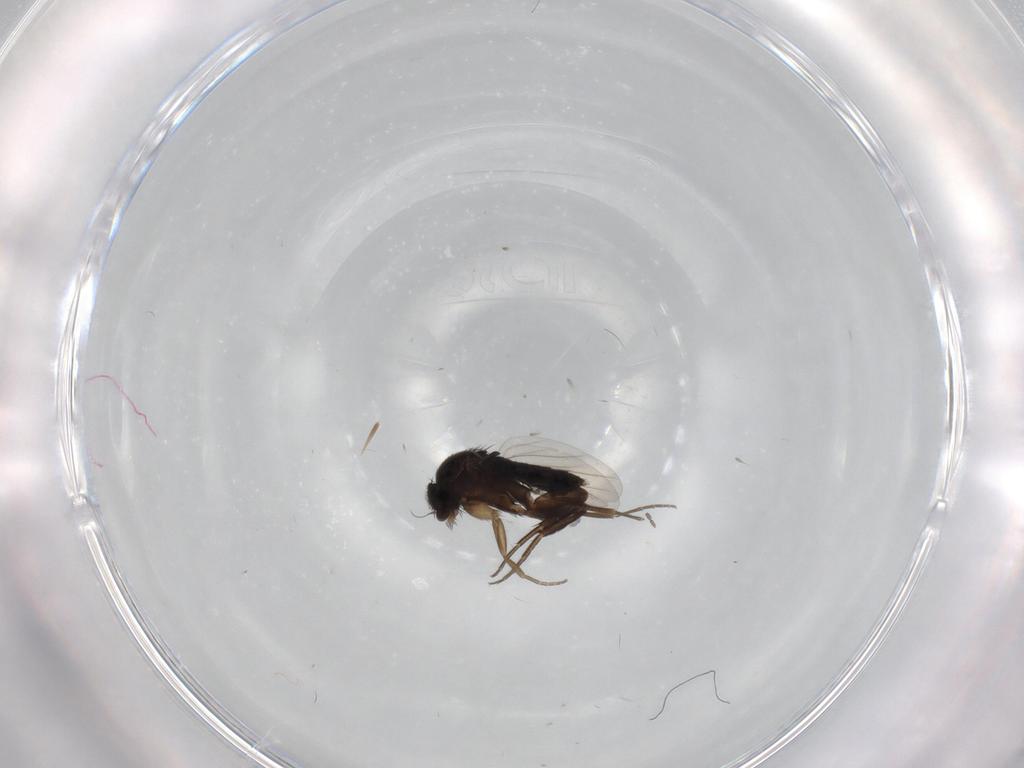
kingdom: Animalia
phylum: Arthropoda
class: Insecta
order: Diptera
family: Phoridae
